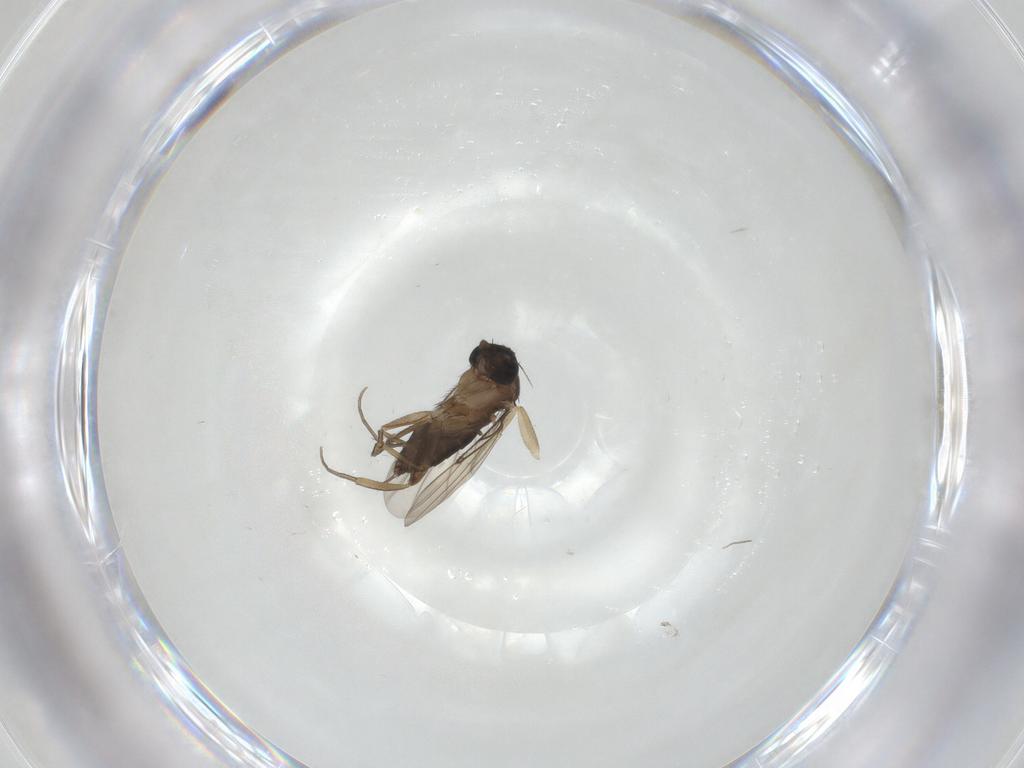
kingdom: Animalia
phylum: Arthropoda
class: Insecta
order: Diptera
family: Chironomidae
